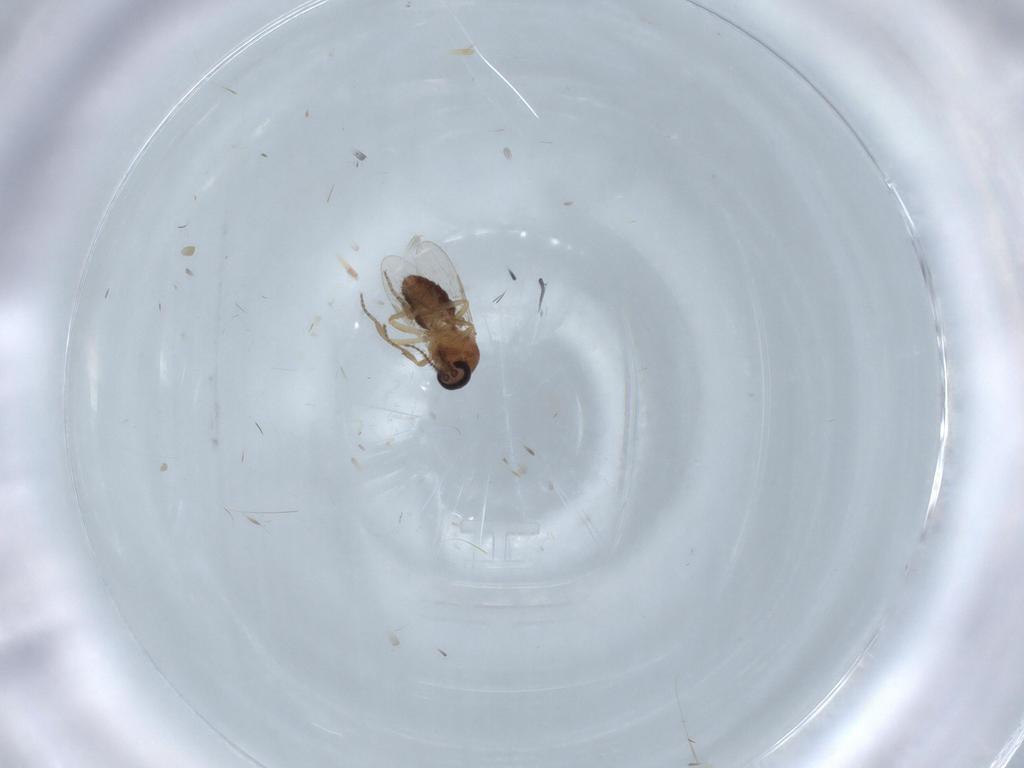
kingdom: Animalia
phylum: Arthropoda
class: Insecta
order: Diptera
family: Ceratopogonidae
